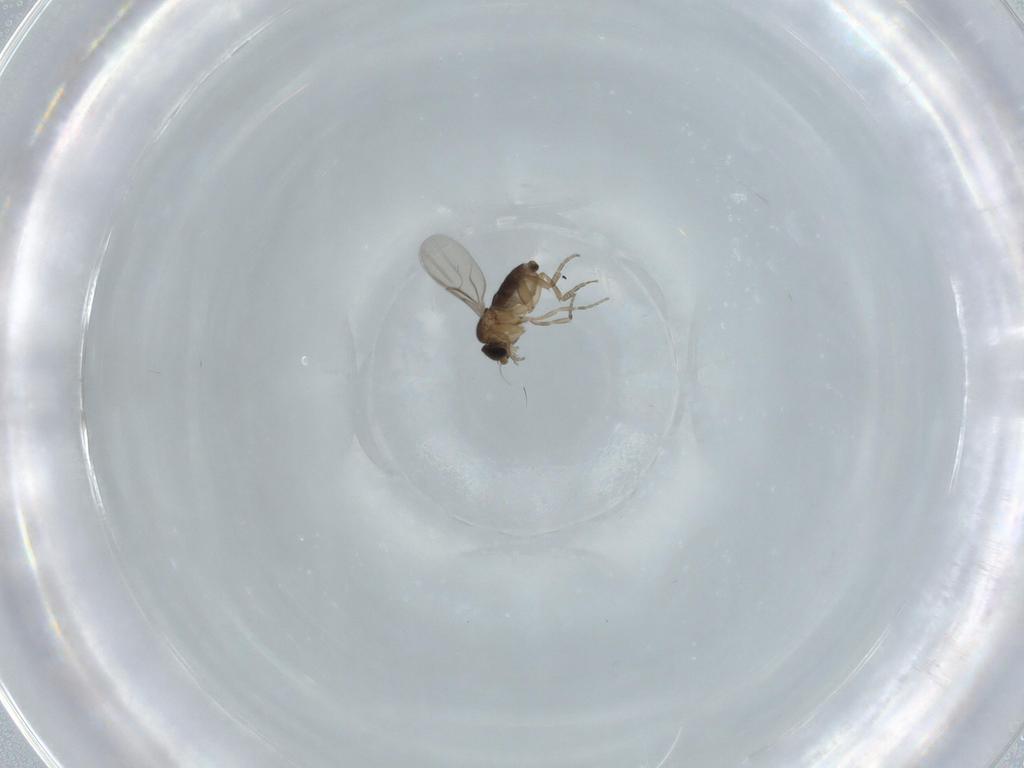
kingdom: Animalia
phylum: Arthropoda
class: Insecta
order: Diptera
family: Phoridae
